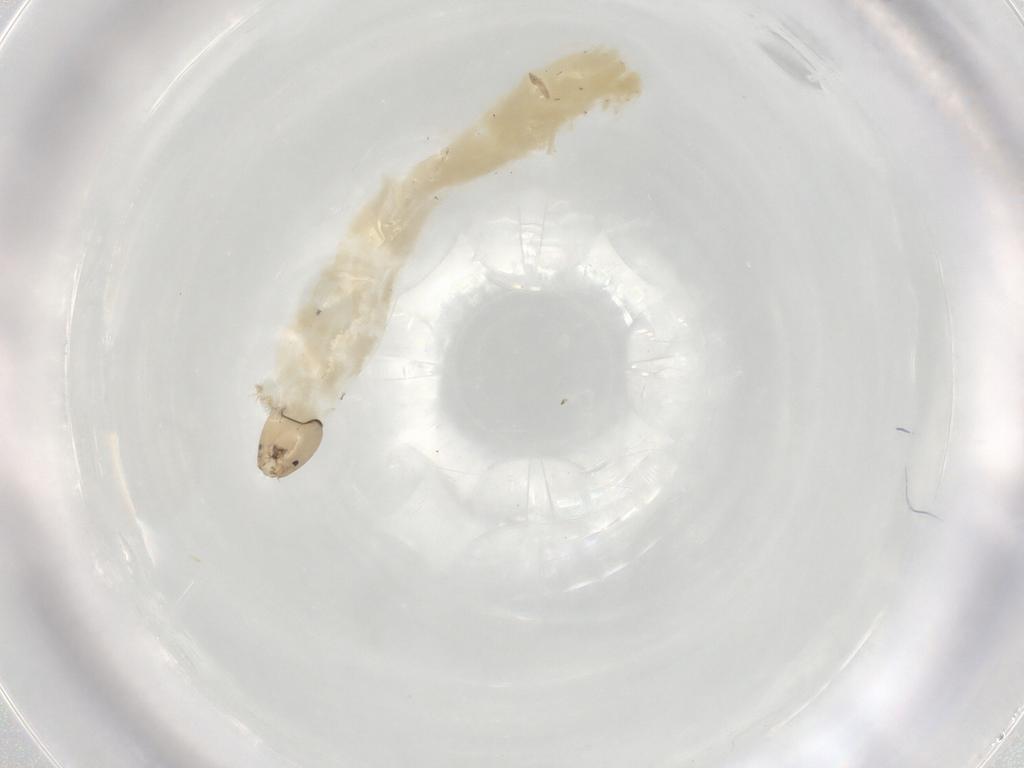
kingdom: Animalia
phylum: Arthropoda
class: Insecta
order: Diptera
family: Chironomidae
